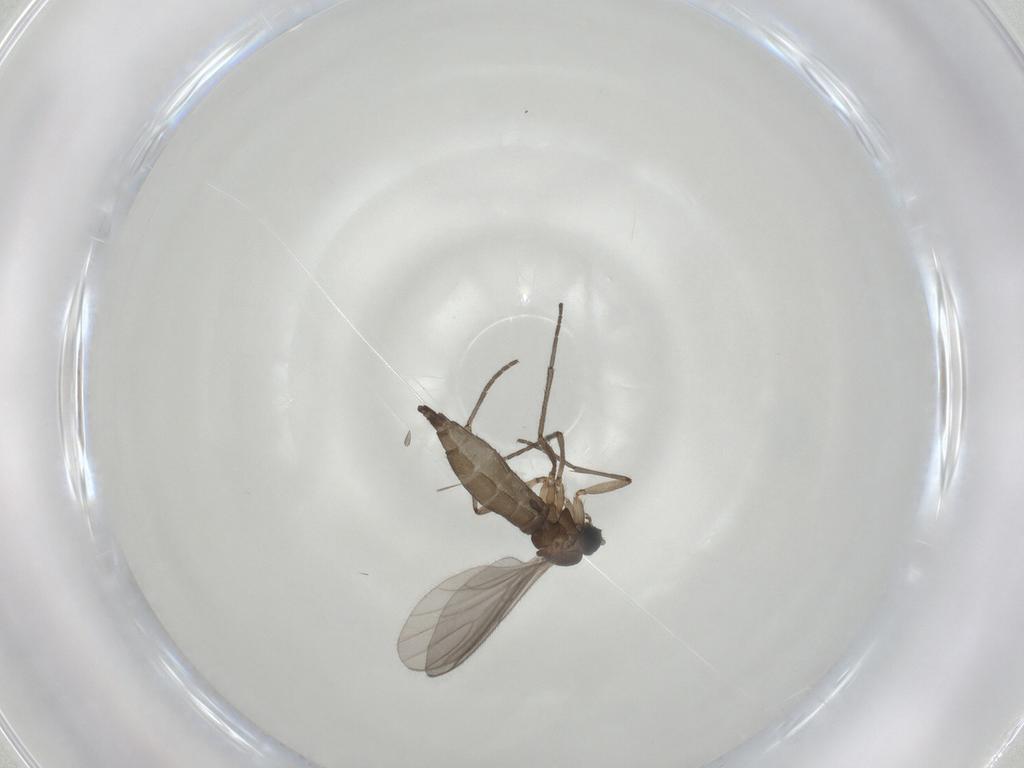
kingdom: Animalia
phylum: Arthropoda
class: Insecta
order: Diptera
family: Sciaridae
